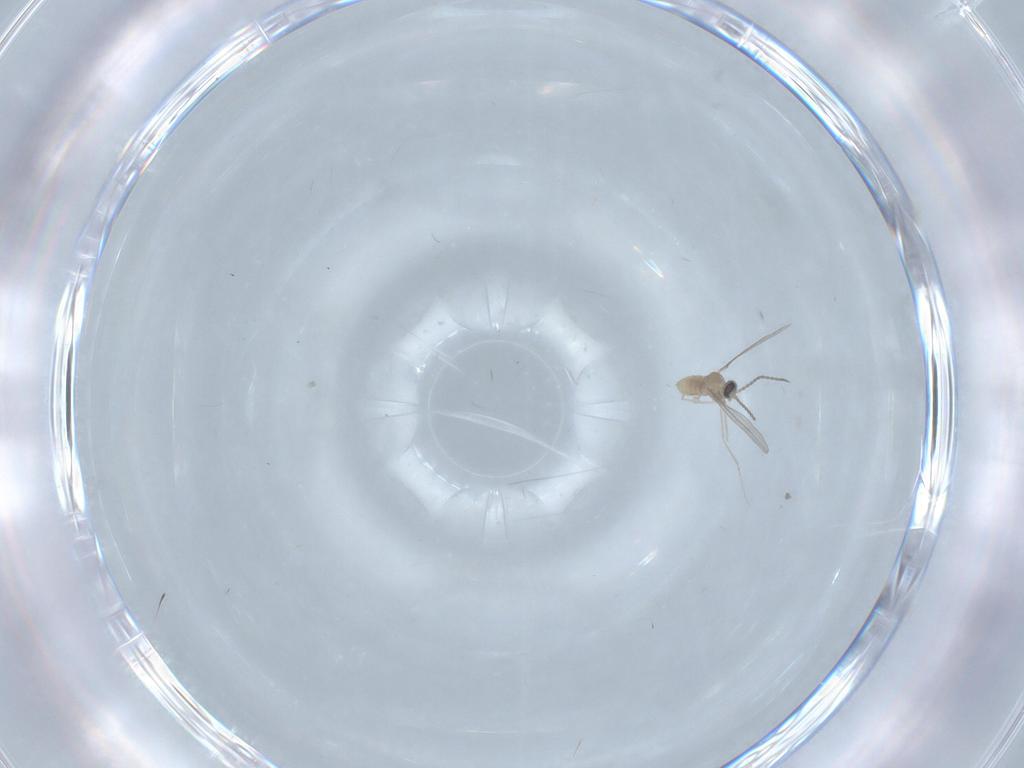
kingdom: Animalia
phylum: Arthropoda
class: Insecta
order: Diptera
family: Cecidomyiidae
